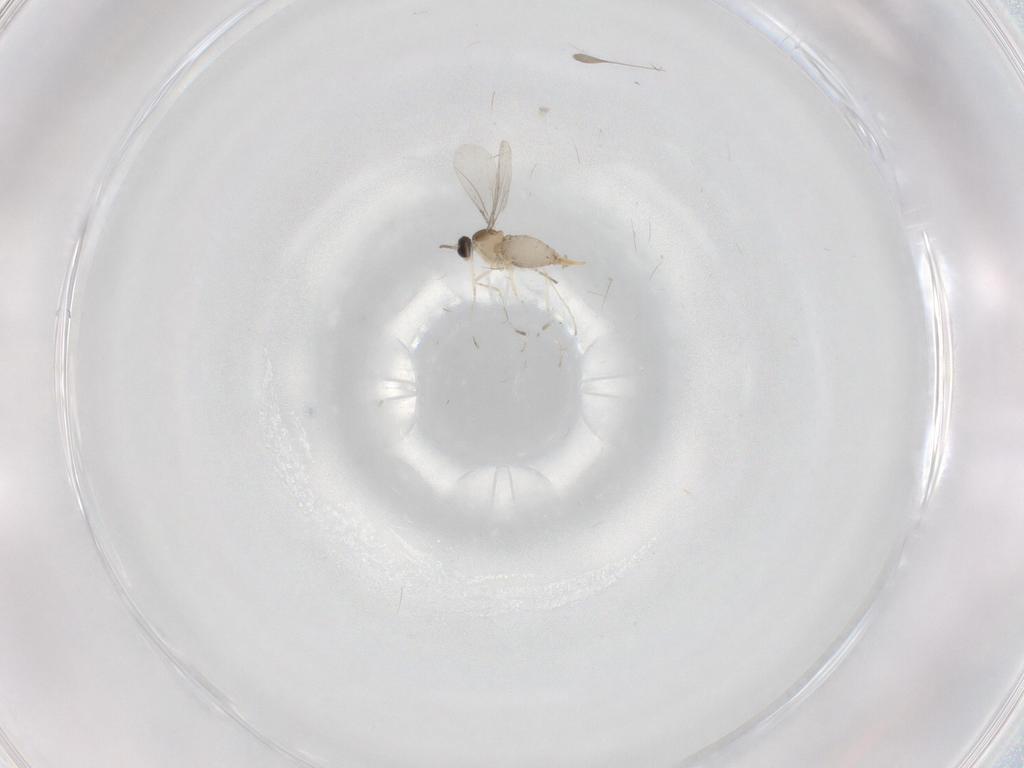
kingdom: Animalia
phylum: Arthropoda
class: Insecta
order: Diptera
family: Cecidomyiidae
